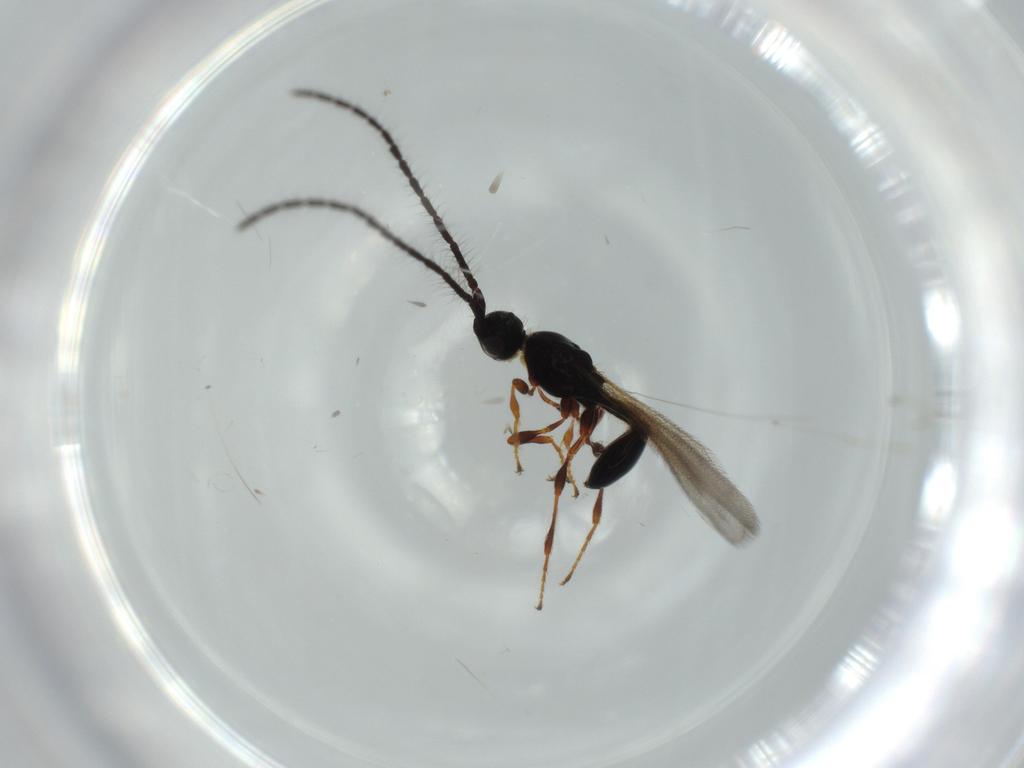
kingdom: Animalia
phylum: Arthropoda
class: Insecta
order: Hymenoptera
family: Diapriidae
